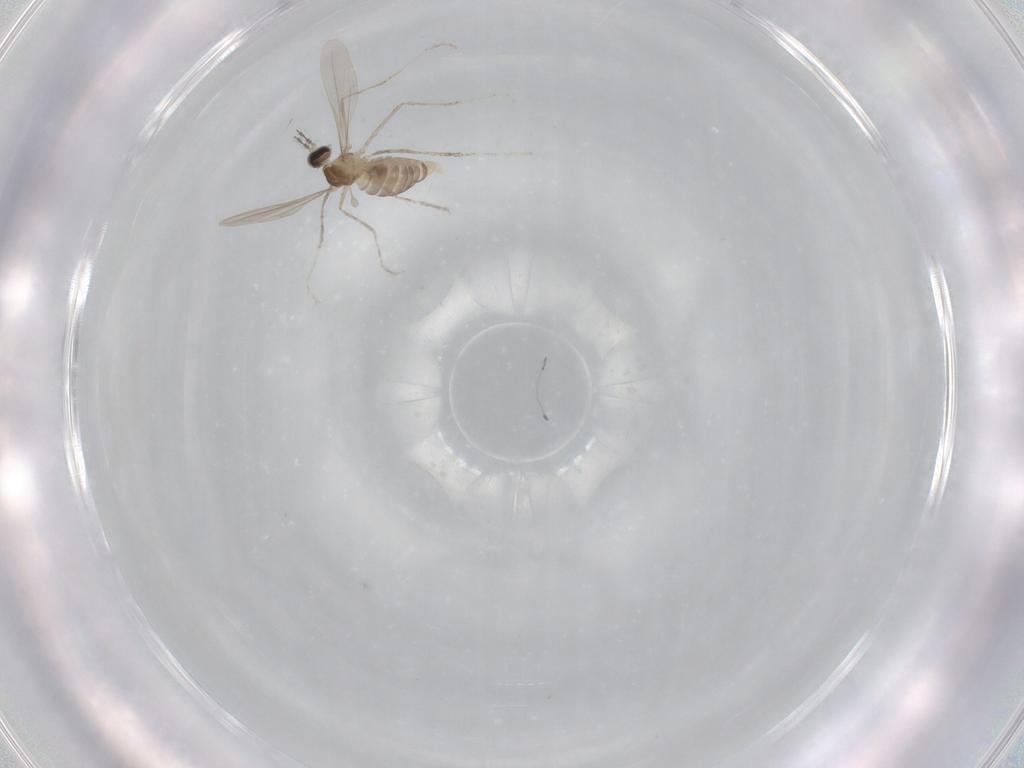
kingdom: Animalia
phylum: Arthropoda
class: Insecta
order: Diptera
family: Cecidomyiidae
